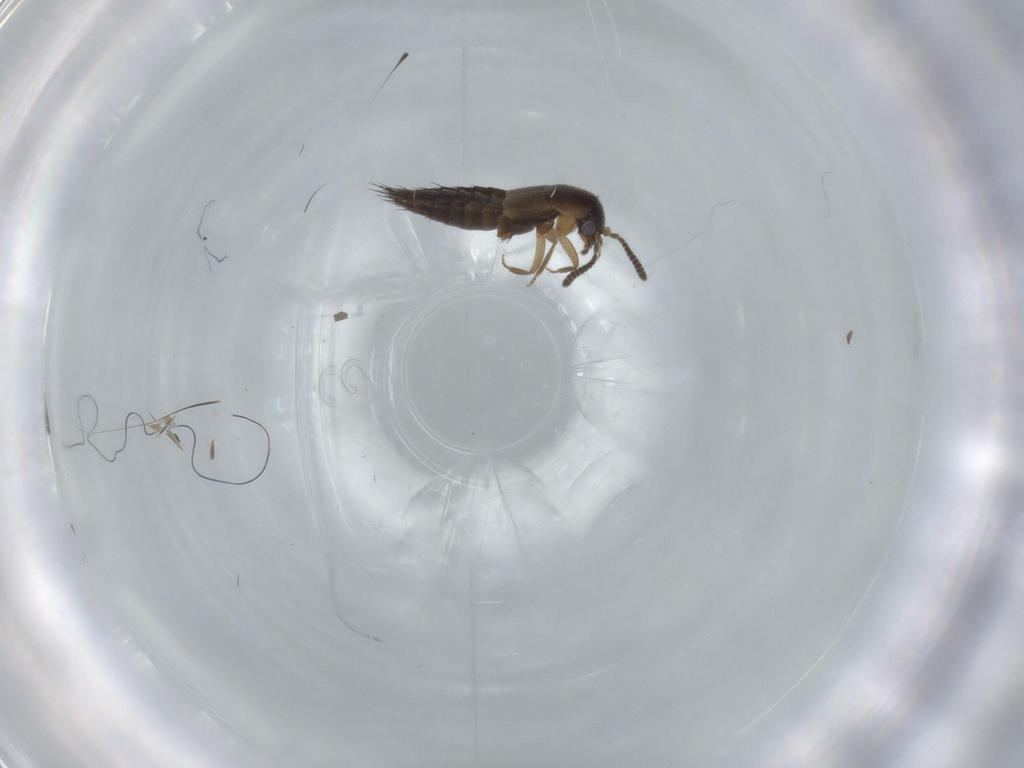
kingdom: Animalia
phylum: Arthropoda
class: Insecta
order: Coleoptera
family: Staphylinidae
